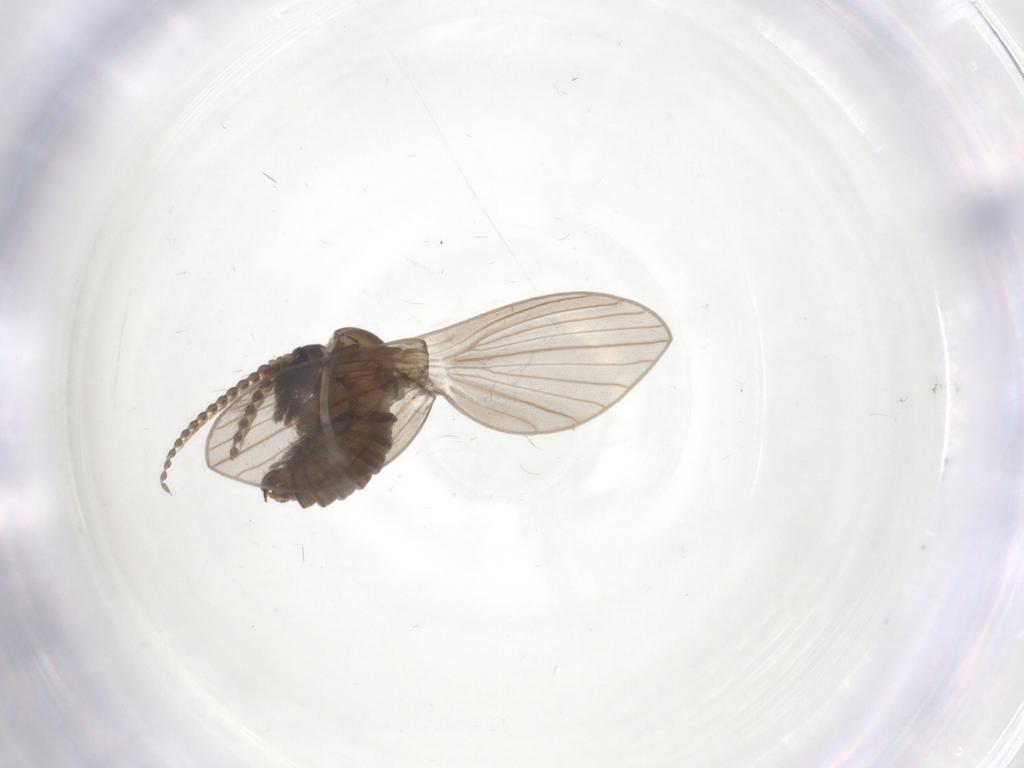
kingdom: Animalia
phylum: Arthropoda
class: Insecta
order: Diptera
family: Psychodidae
